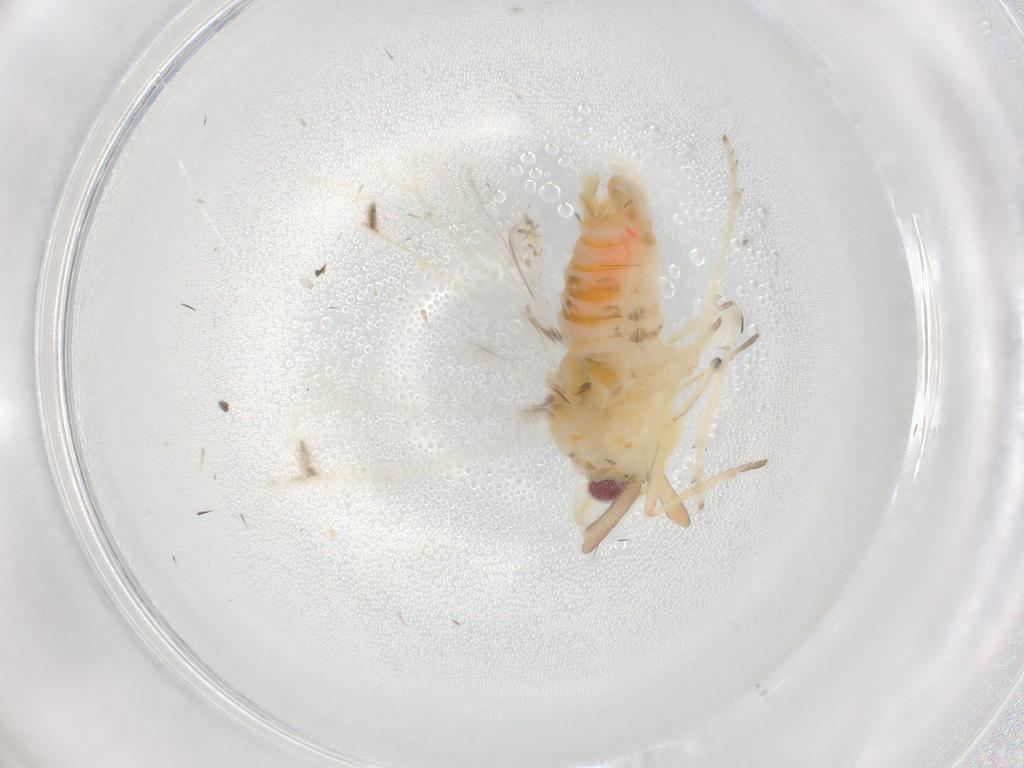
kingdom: Animalia
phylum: Arthropoda
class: Insecta
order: Hemiptera
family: Derbidae
